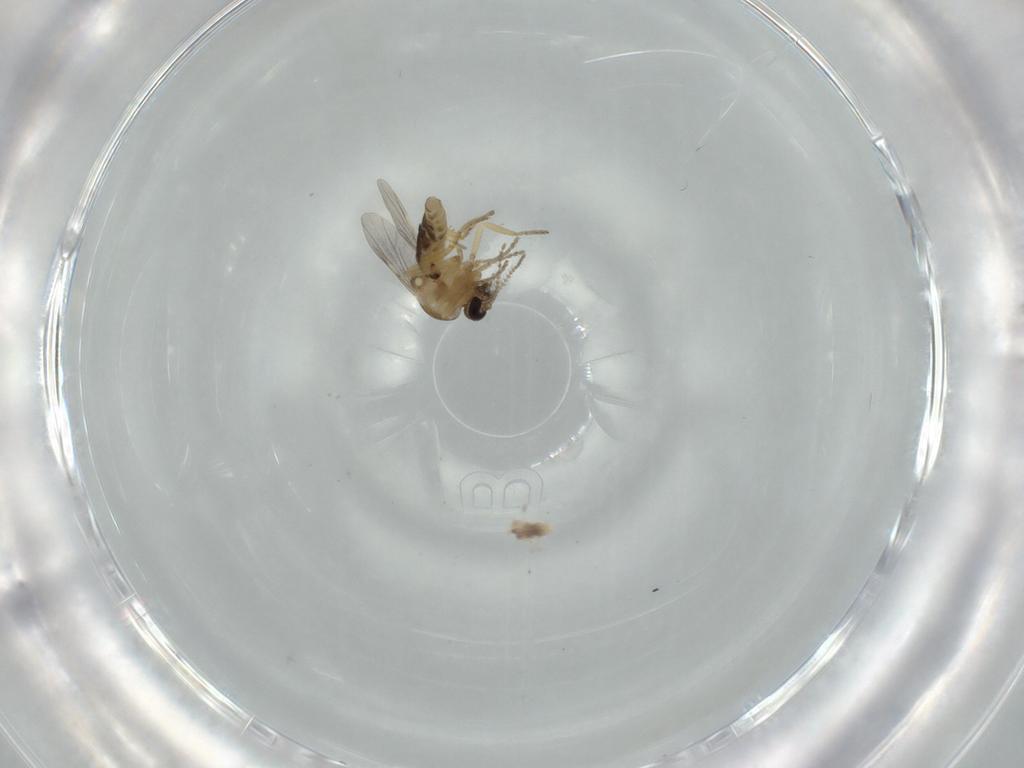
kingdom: Animalia
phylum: Arthropoda
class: Insecta
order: Diptera
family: Ceratopogonidae
